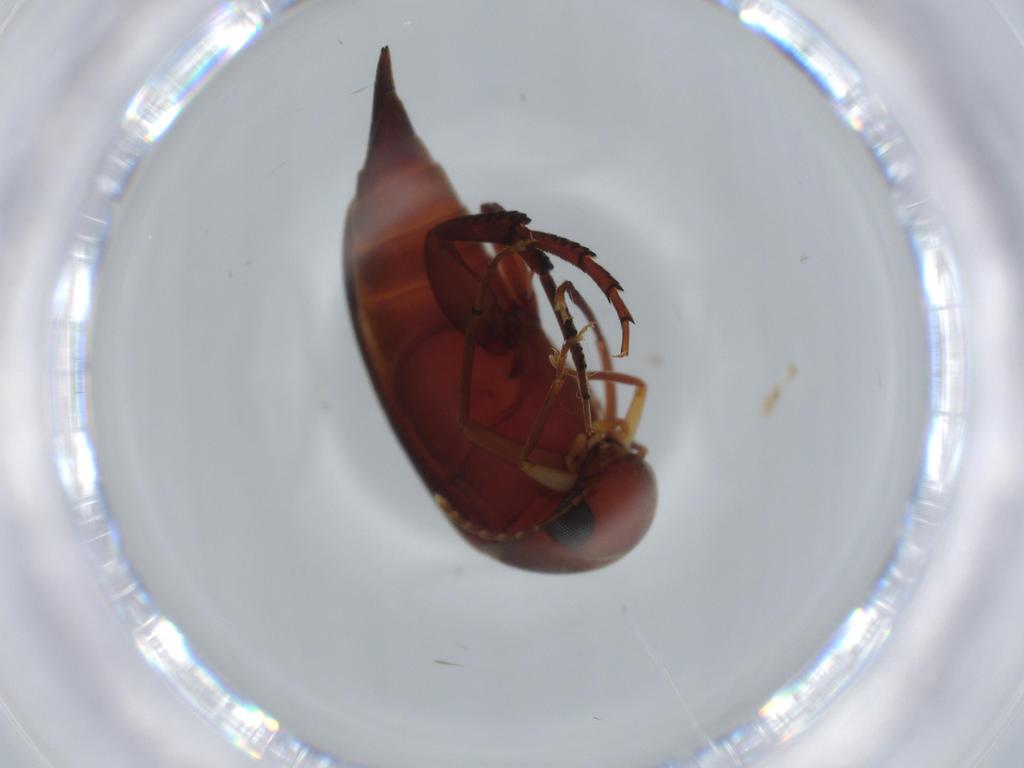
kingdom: Animalia
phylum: Arthropoda
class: Insecta
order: Coleoptera
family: Mordellidae
